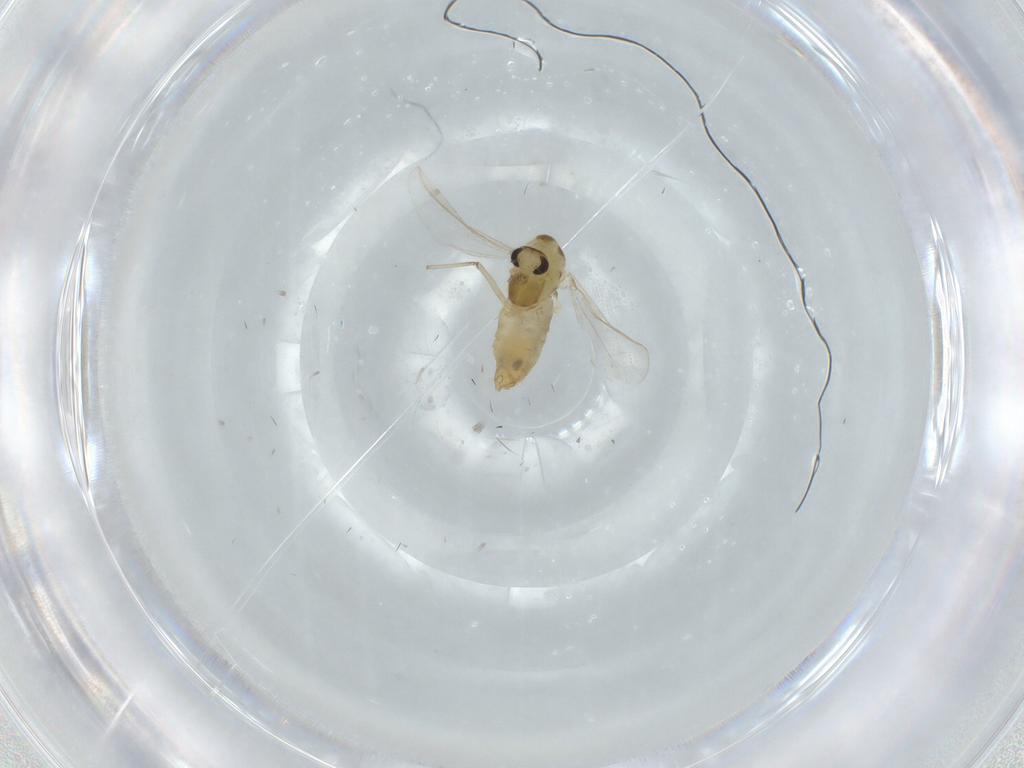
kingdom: Animalia
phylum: Arthropoda
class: Insecta
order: Diptera
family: Chironomidae
